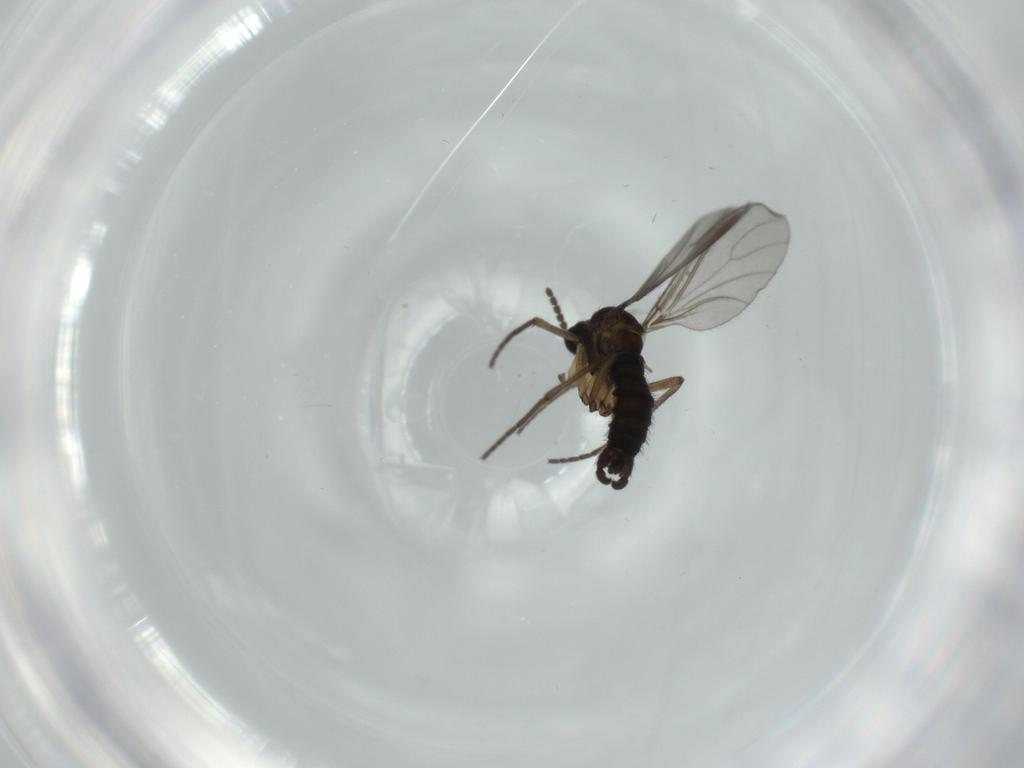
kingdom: Animalia
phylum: Arthropoda
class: Insecta
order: Diptera
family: Sciaridae
